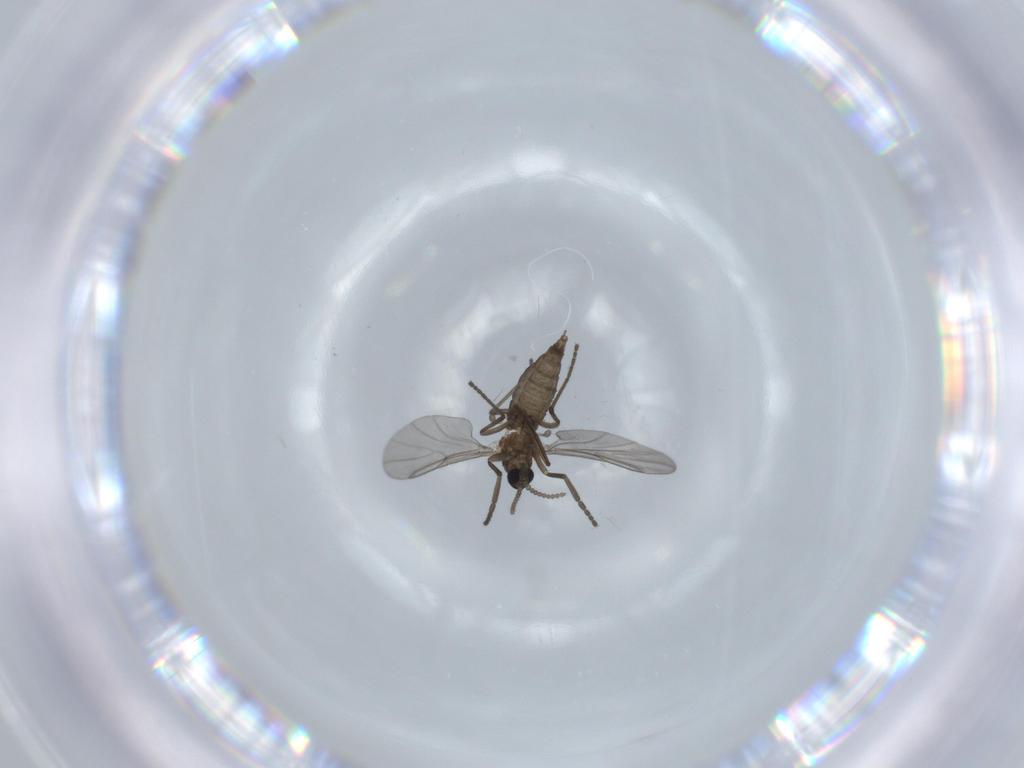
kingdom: Animalia
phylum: Arthropoda
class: Insecta
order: Diptera
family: Cecidomyiidae
